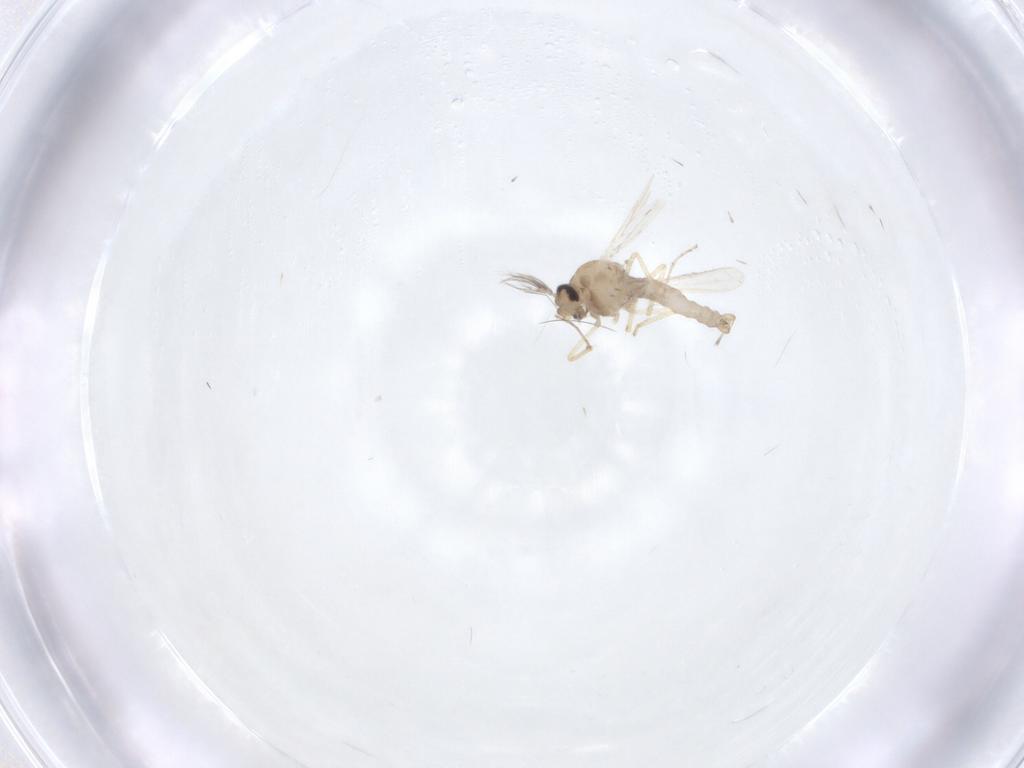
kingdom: Animalia
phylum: Arthropoda
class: Insecta
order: Diptera
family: Ceratopogonidae
